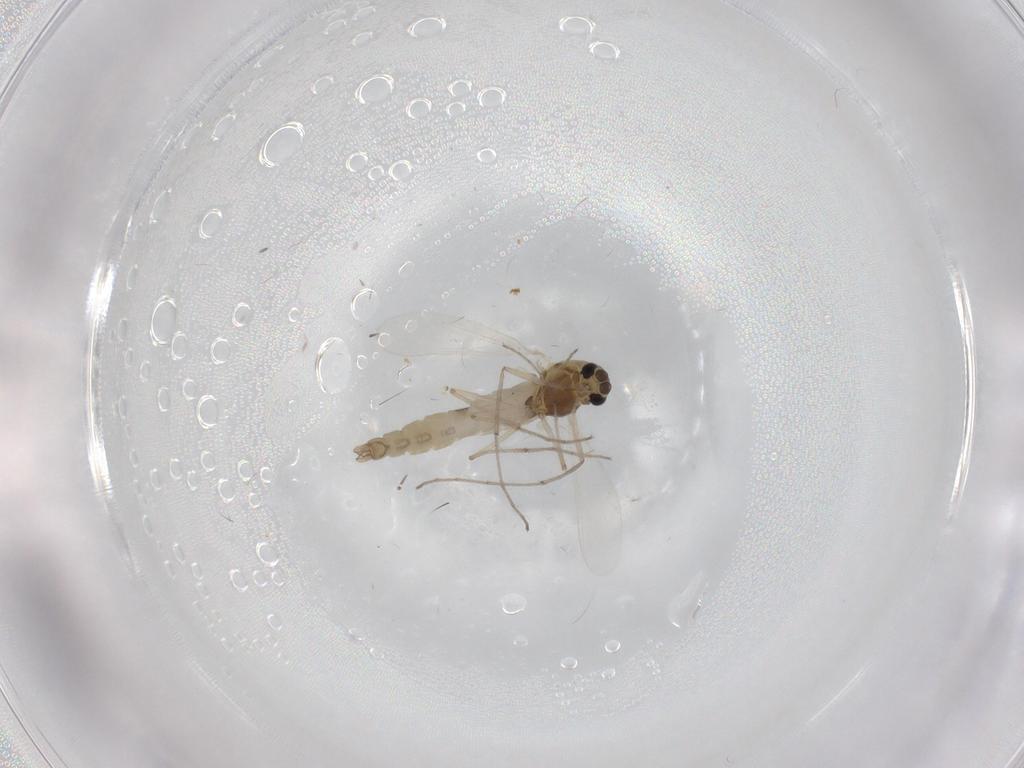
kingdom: Animalia
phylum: Arthropoda
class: Insecta
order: Diptera
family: Chironomidae
